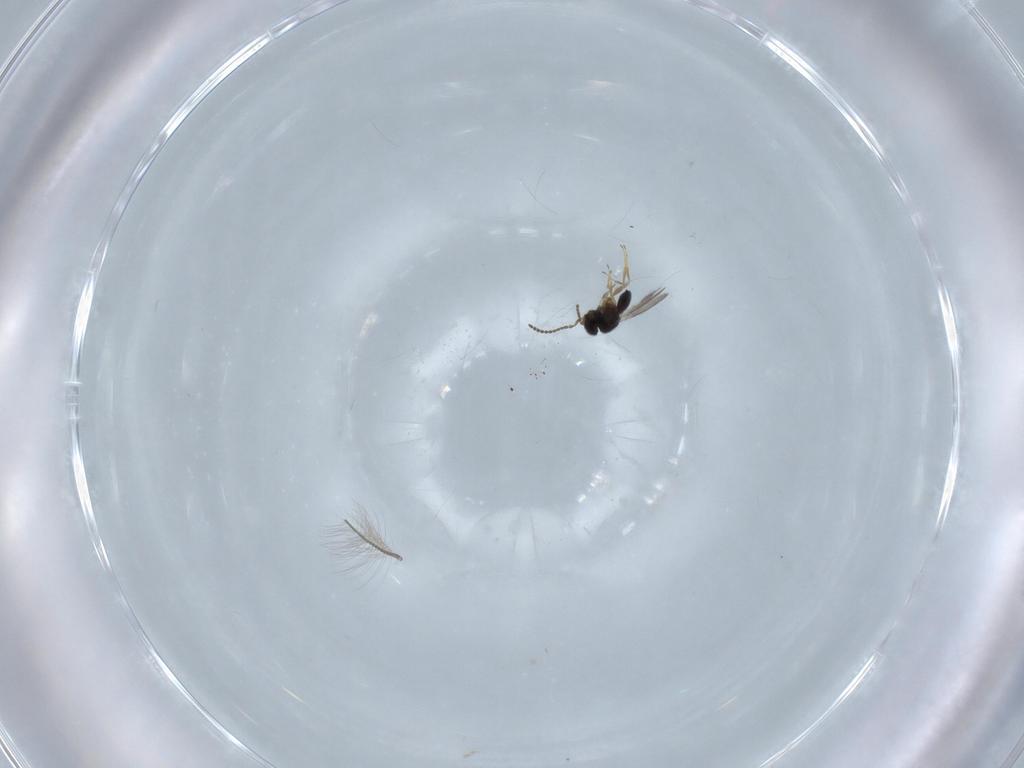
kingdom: Animalia
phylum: Arthropoda
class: Insecta
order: Hymenoptera
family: Scelionidae
